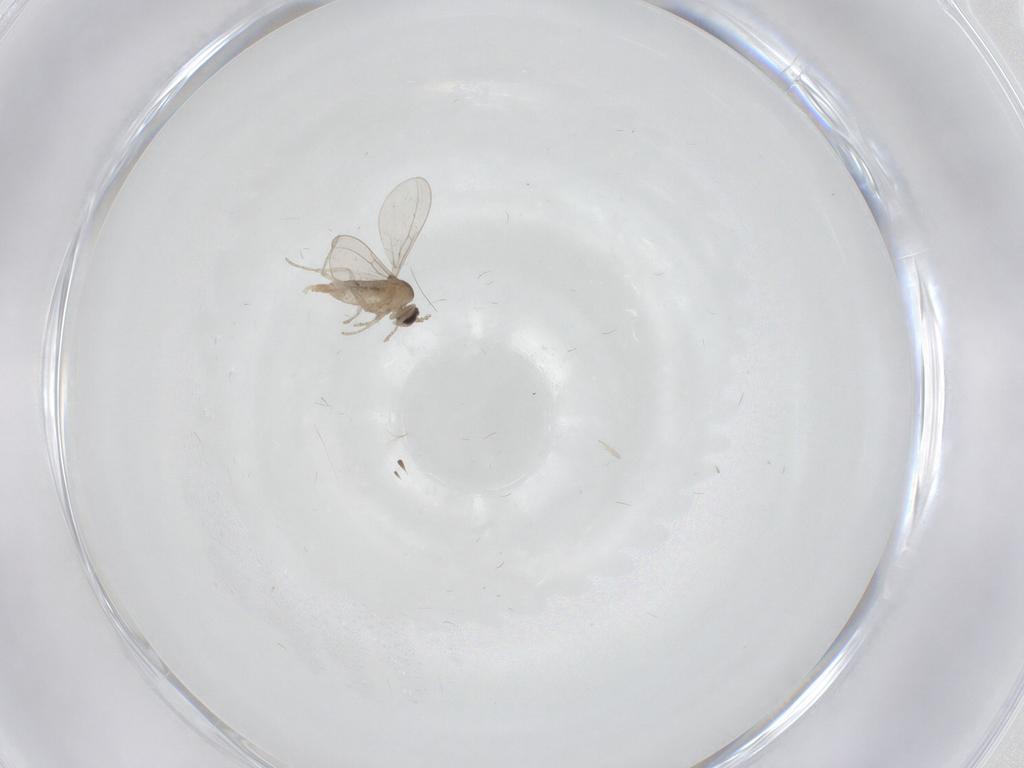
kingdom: Animalia
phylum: Arthropoda
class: Insecta
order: Diptera
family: Cecidomyiidae
